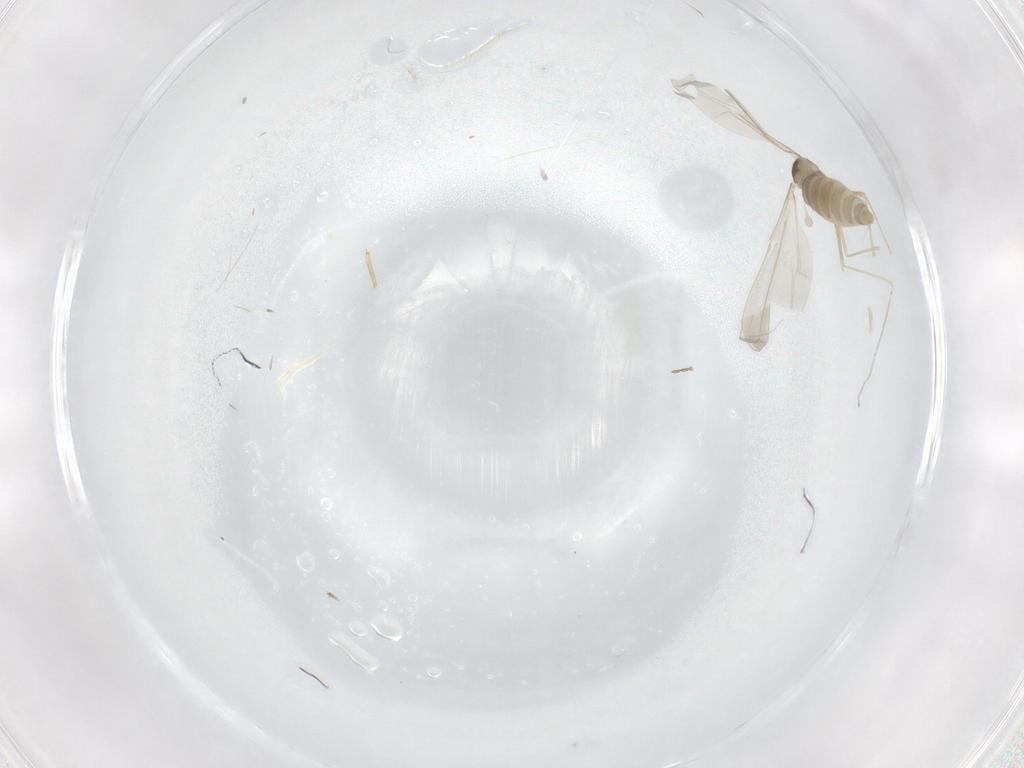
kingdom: Animalia
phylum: Arthropoda
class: Insecta
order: Diptera
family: Cecidomyiidae
